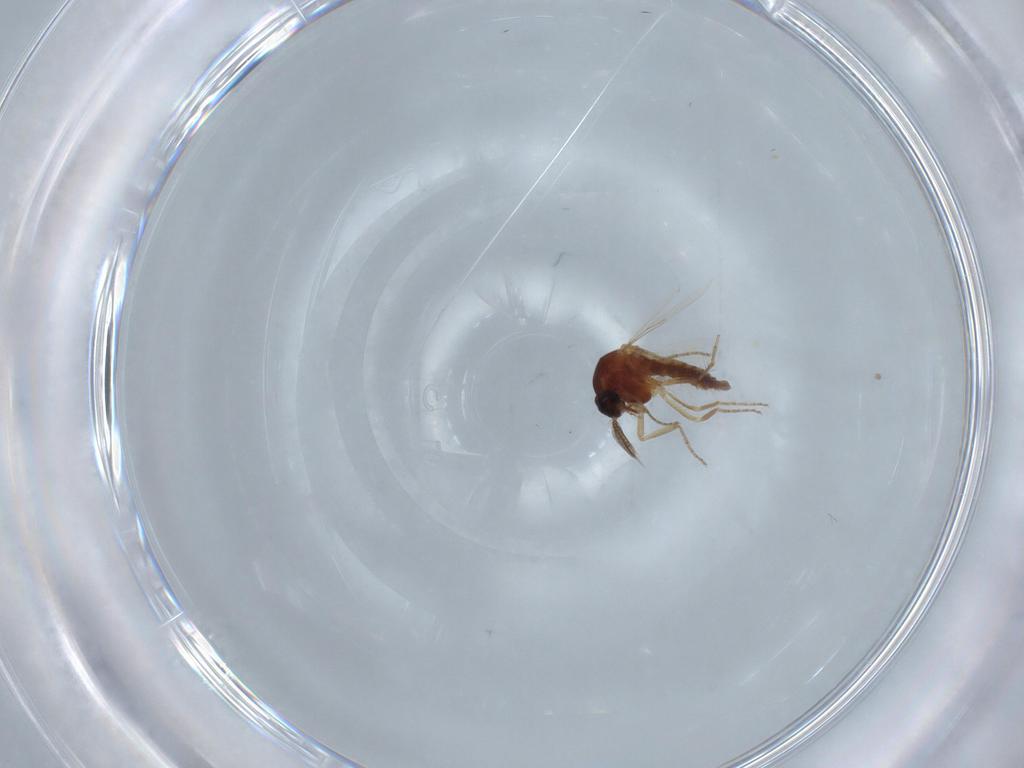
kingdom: Animalia
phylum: Arthropoda
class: Insecta
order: Diptera
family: Ceratopogonidae
